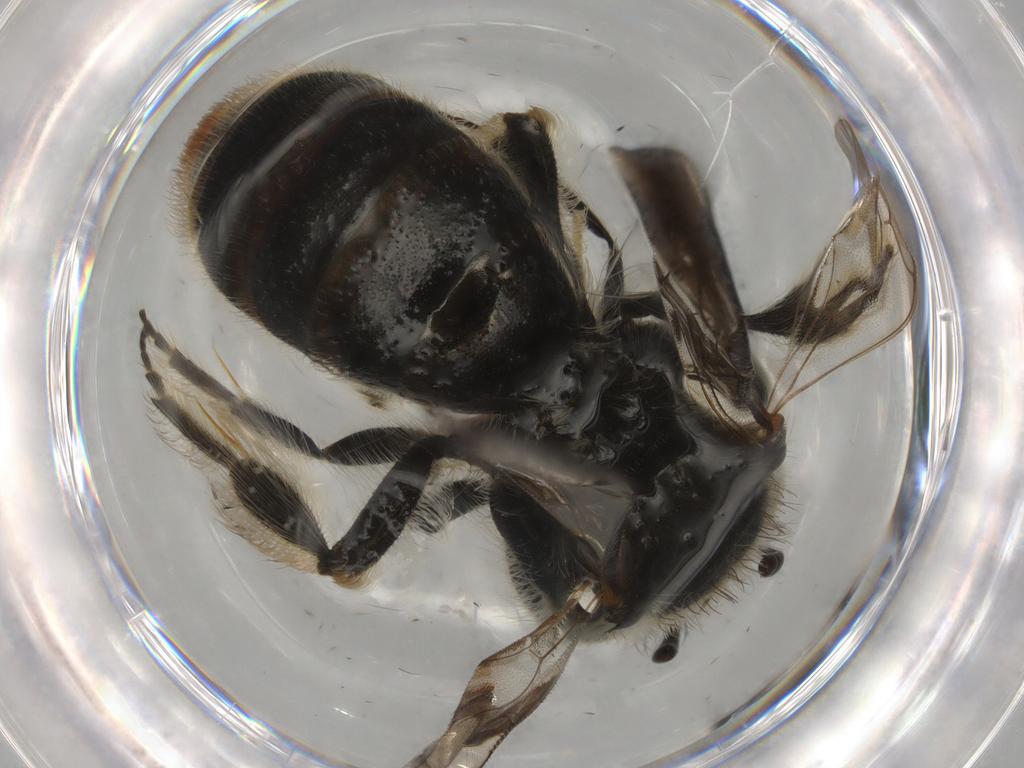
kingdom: Animalia
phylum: Arthropoda
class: Insecta
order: Hymenoptera
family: Halictidae
